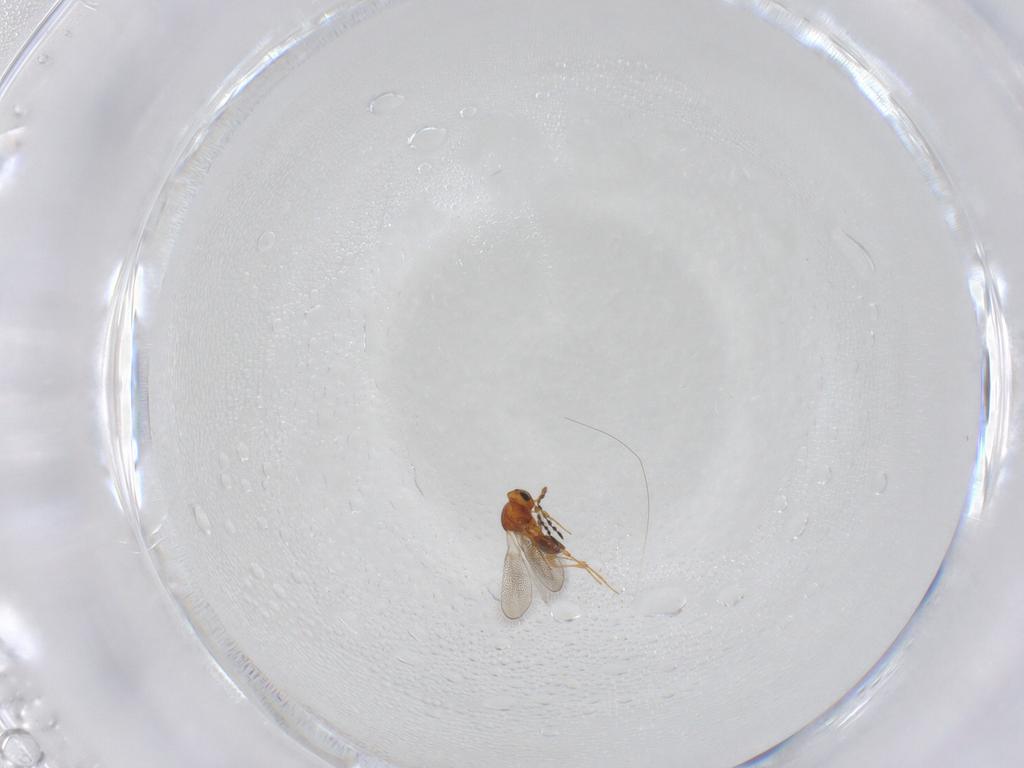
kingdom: Animalia
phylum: Arthropoda
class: Insecta
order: Hymenoptera
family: Platygastridae
